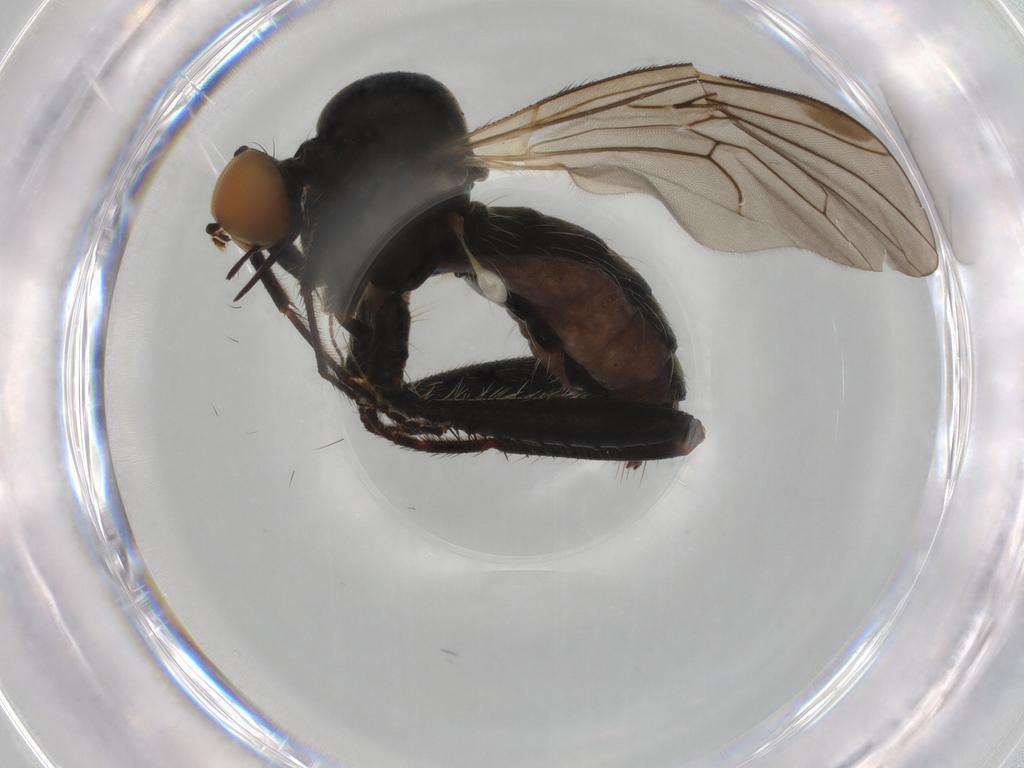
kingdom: Animalia
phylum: Arthropoda
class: Insecta
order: Diptera
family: Hybotidae
